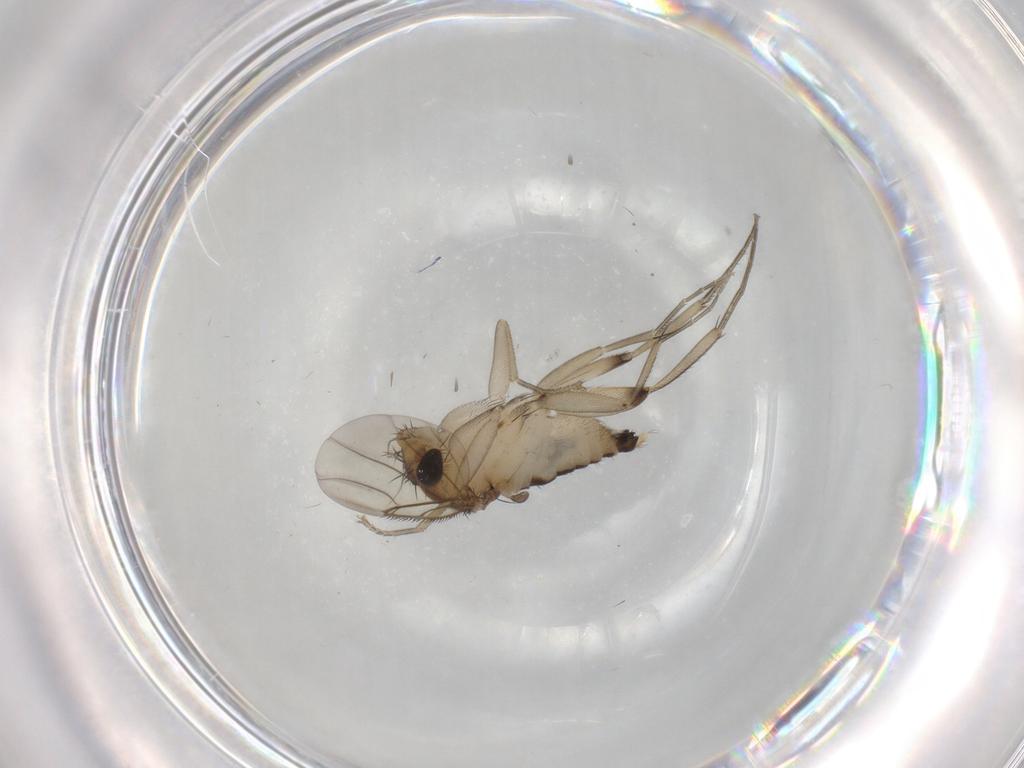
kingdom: Animalia
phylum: Arthropoda
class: Insecta
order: Diptera
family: Phoridae
